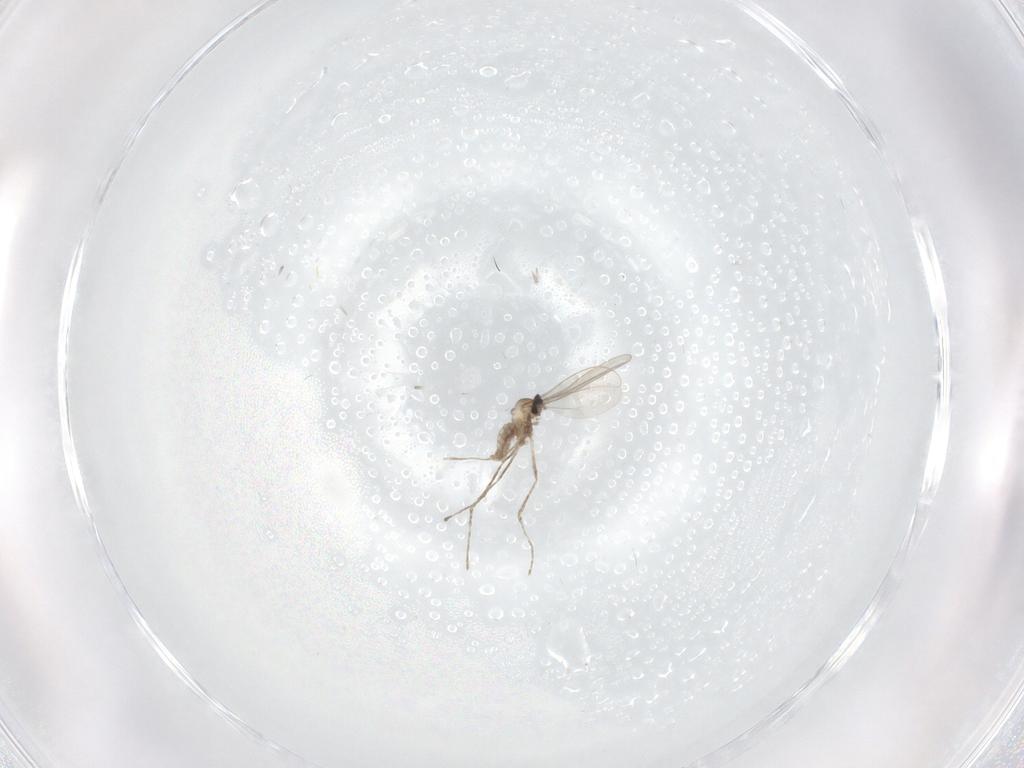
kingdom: Animalia
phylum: Arthropoda
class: Insecta
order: Diptera
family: Cecidomyiidae
